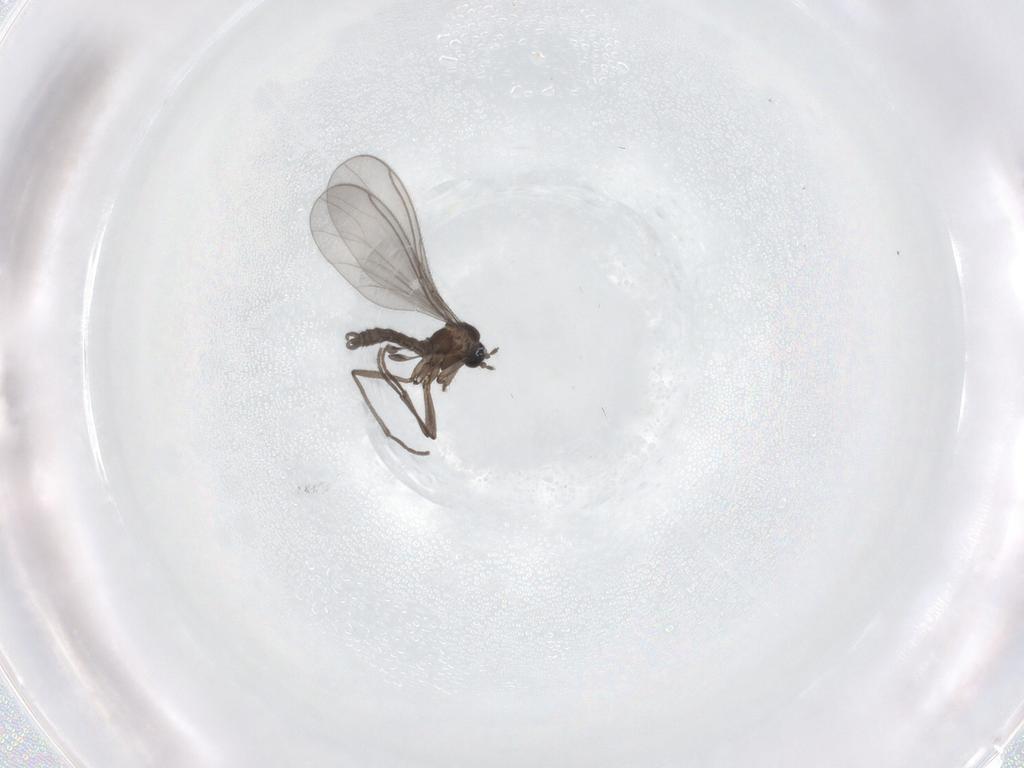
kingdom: Animalia
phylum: Arthropoda
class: Insecta
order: Diptera
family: Sciaridae
